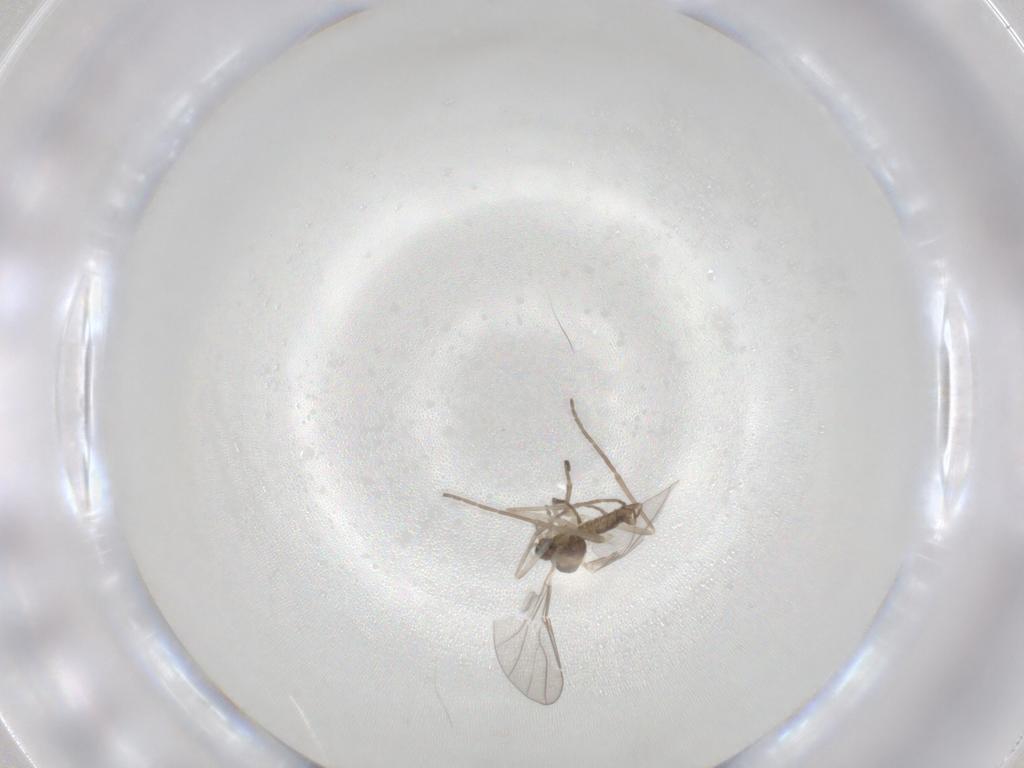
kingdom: Animalia
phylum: Arthropoda
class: Insecta
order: Diptera
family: Cecidomyiidae
